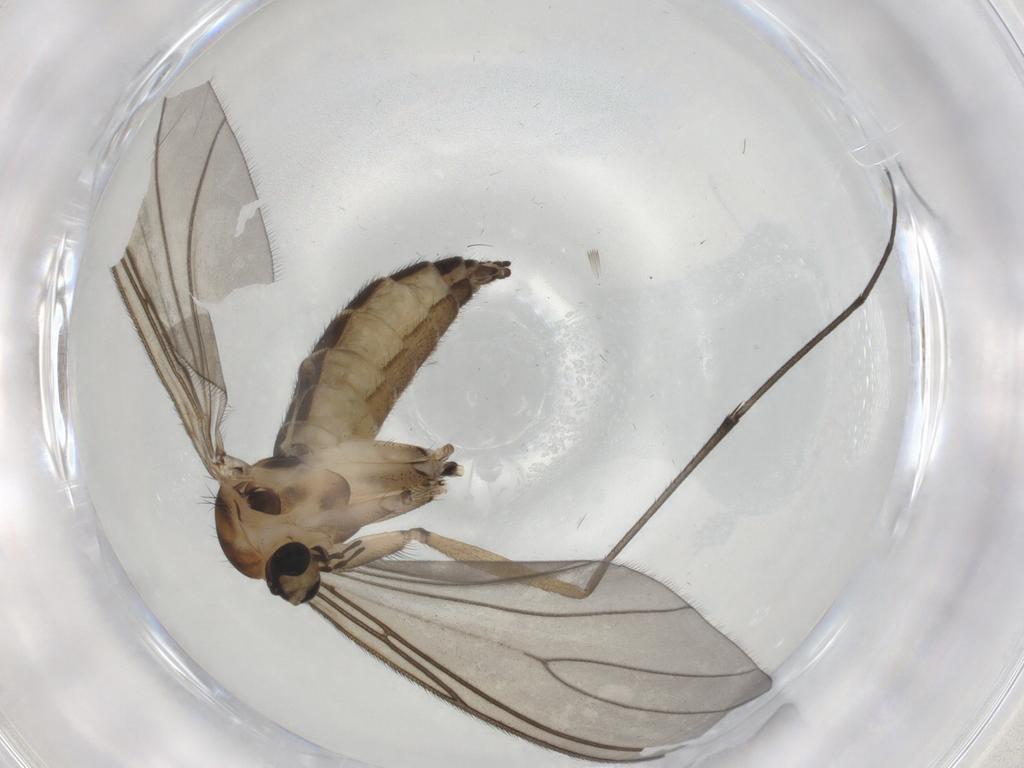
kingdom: Animalia
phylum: Arthropoda
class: Insecta
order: Diptera
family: Sciaridae
